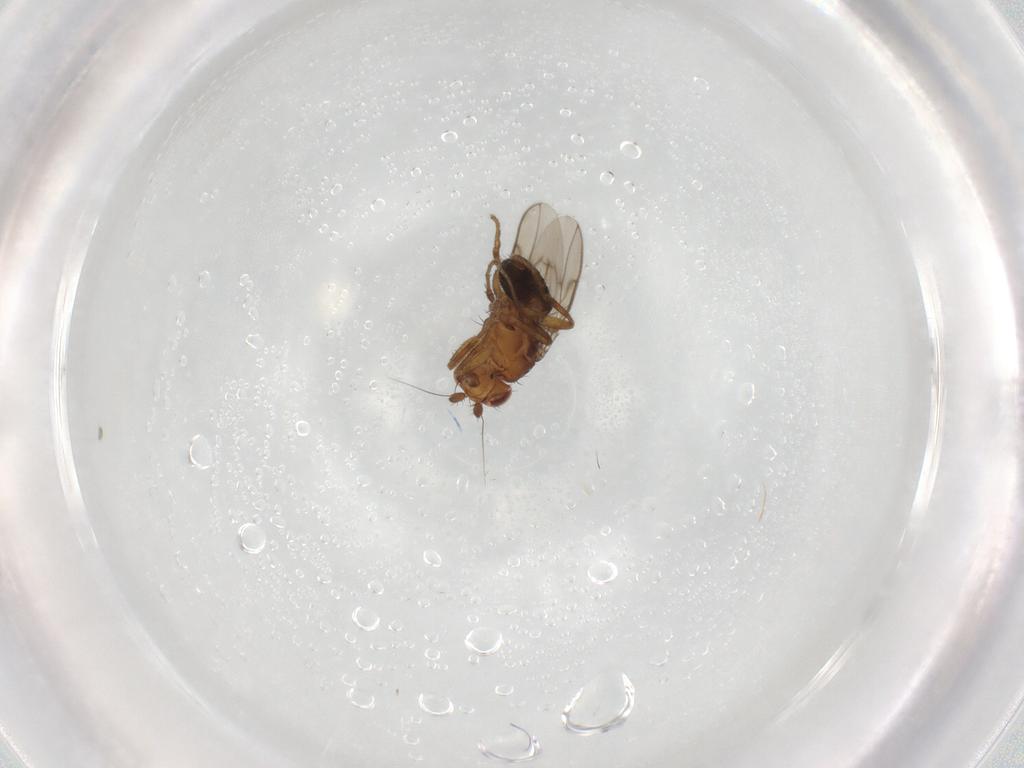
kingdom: Animalia
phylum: Arthropoda
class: Insecta
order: Diptera
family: Sphaeroceridae
